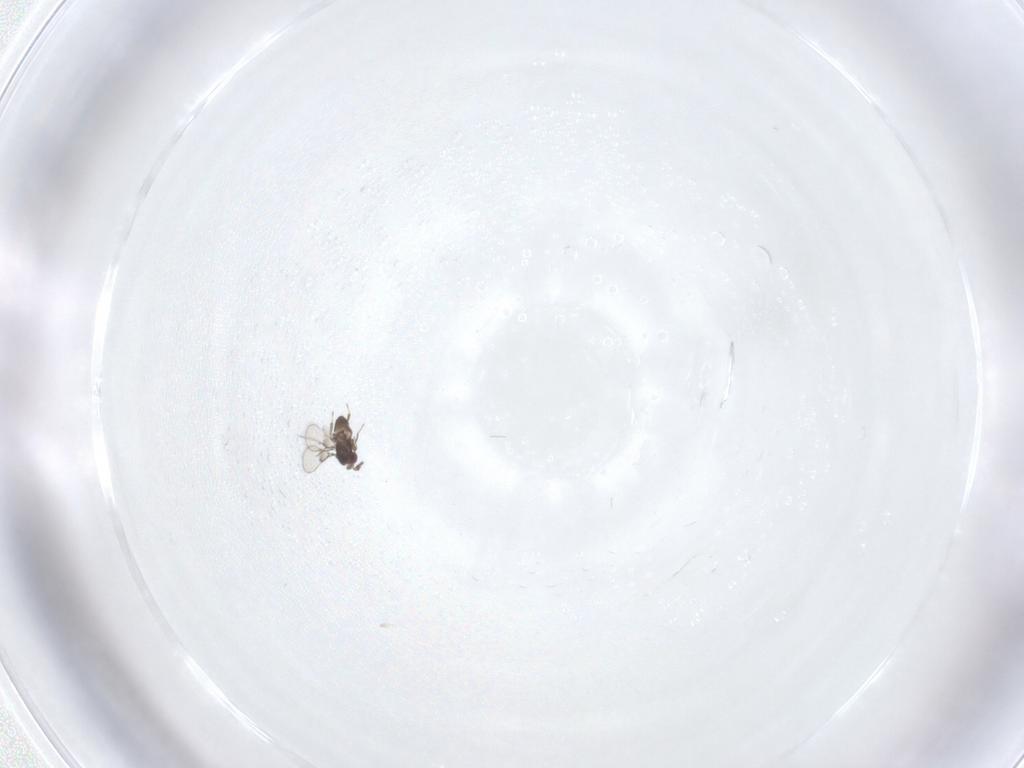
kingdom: Animalia
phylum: Arthropoda
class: Insecta
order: Hymenoptera
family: Trichogrammatidae
